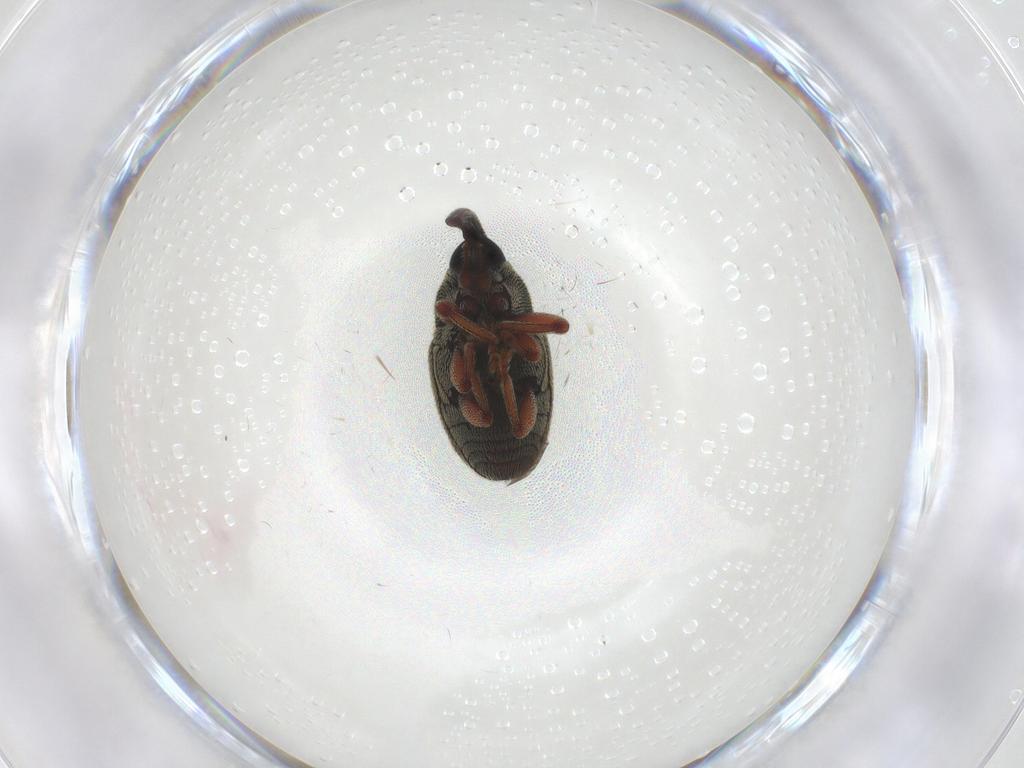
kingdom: Animalia
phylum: Arthropoda
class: Insecta
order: Coleoptera
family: Curculionidae
